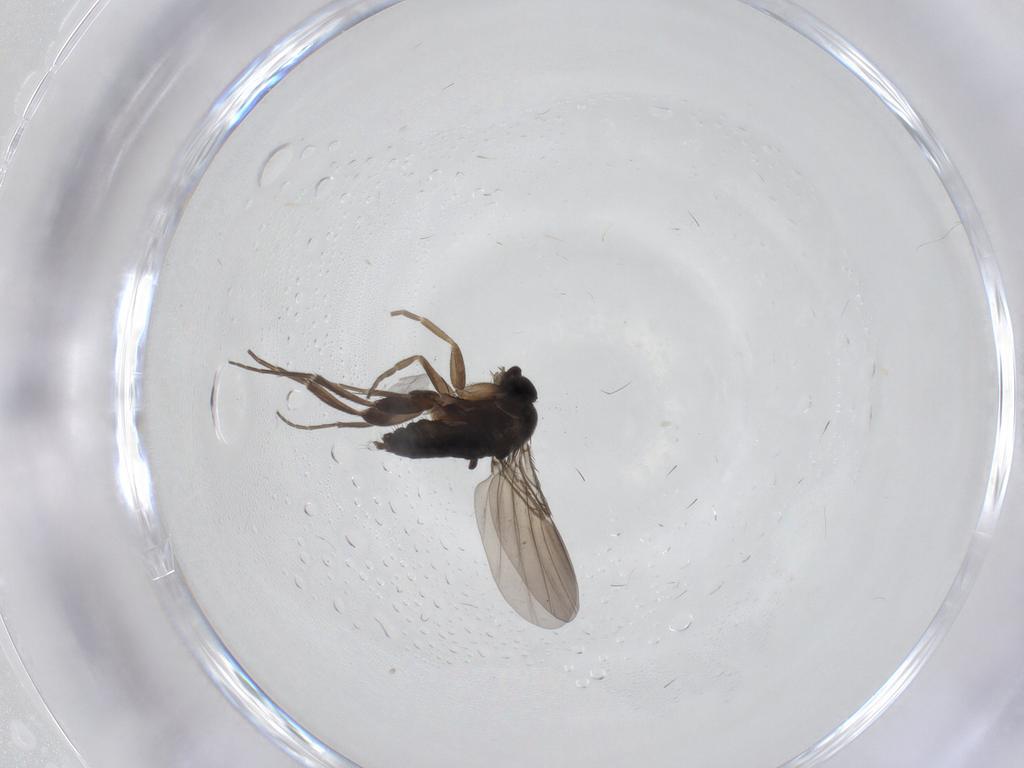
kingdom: Animalia
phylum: Arthropoda
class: Insecta
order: Diptera
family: Phoridae
